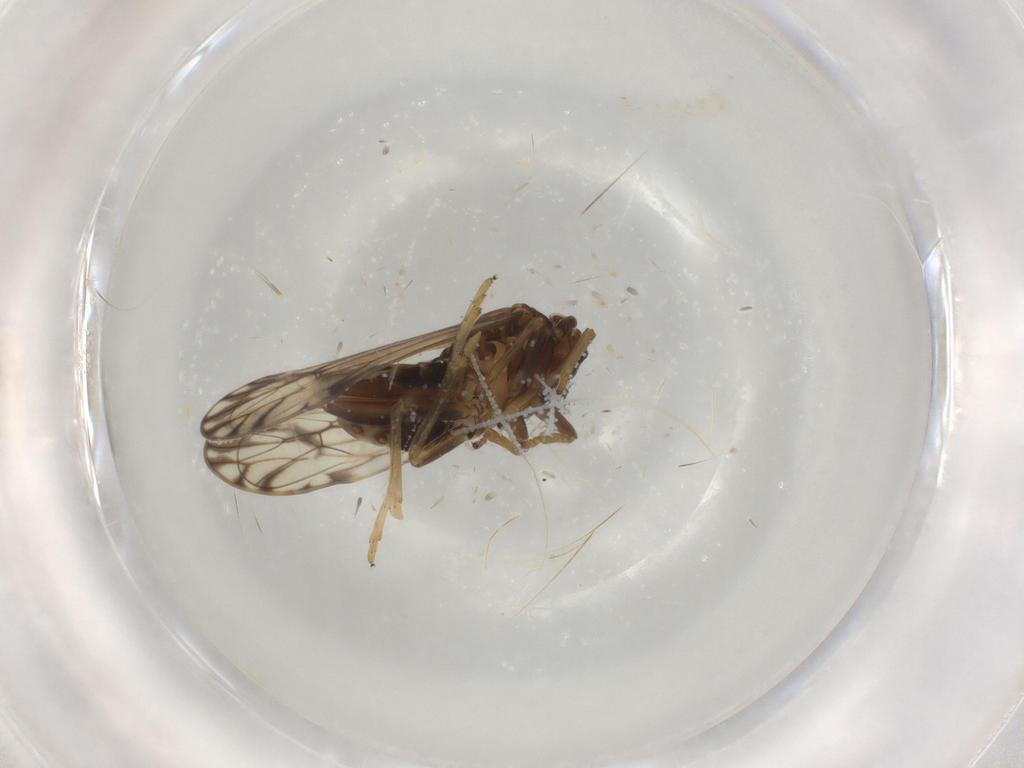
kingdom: Animalia
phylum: Arthropoda
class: Insecta
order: Hemiptera
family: Delphacidae
